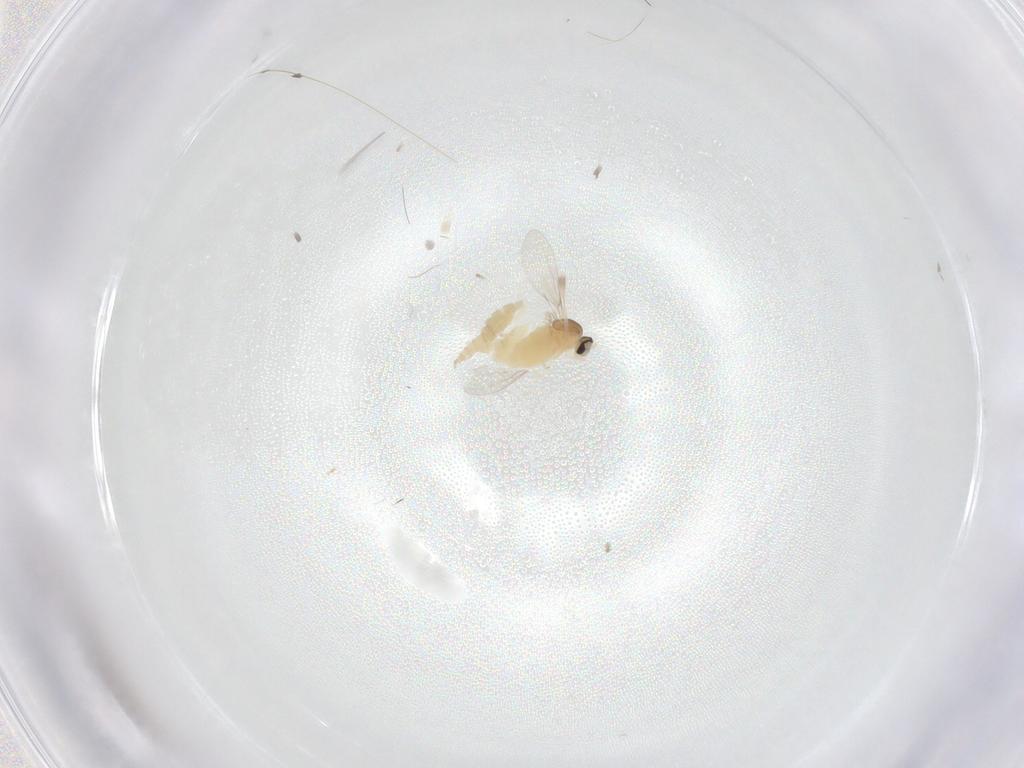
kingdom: Animalia
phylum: Arthropoda
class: Insecta
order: Diptera
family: Cecidomyiidae
